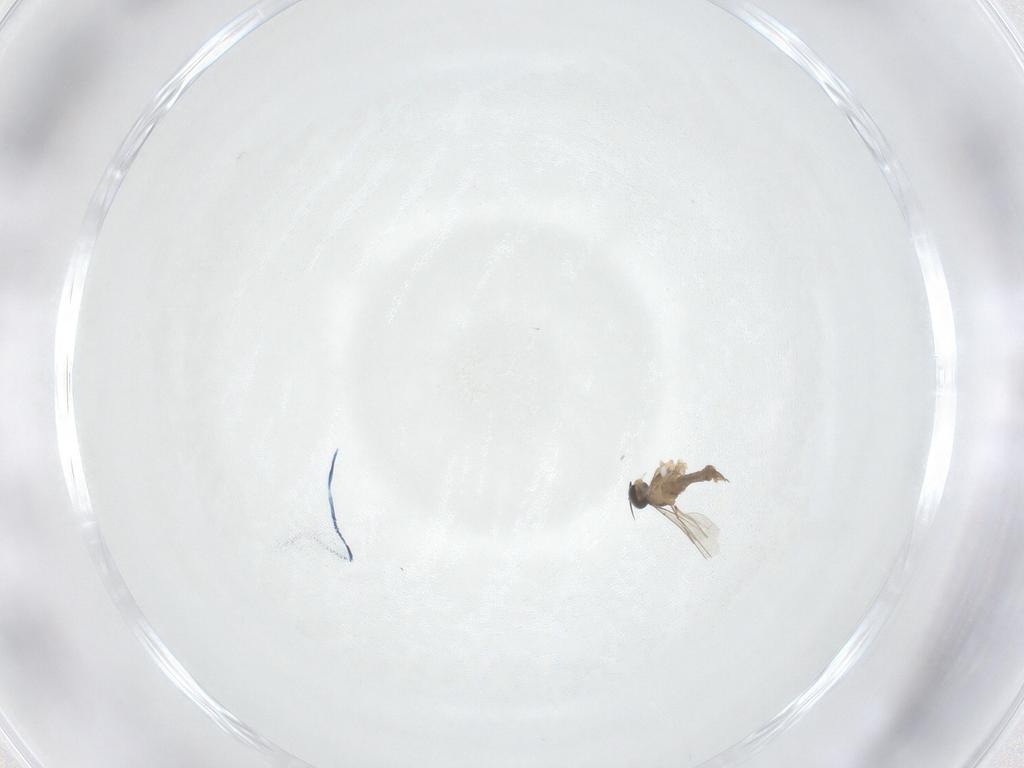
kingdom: Animalia
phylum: Arthropoda
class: Insecta
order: Diptera
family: Cecidomyiidae
